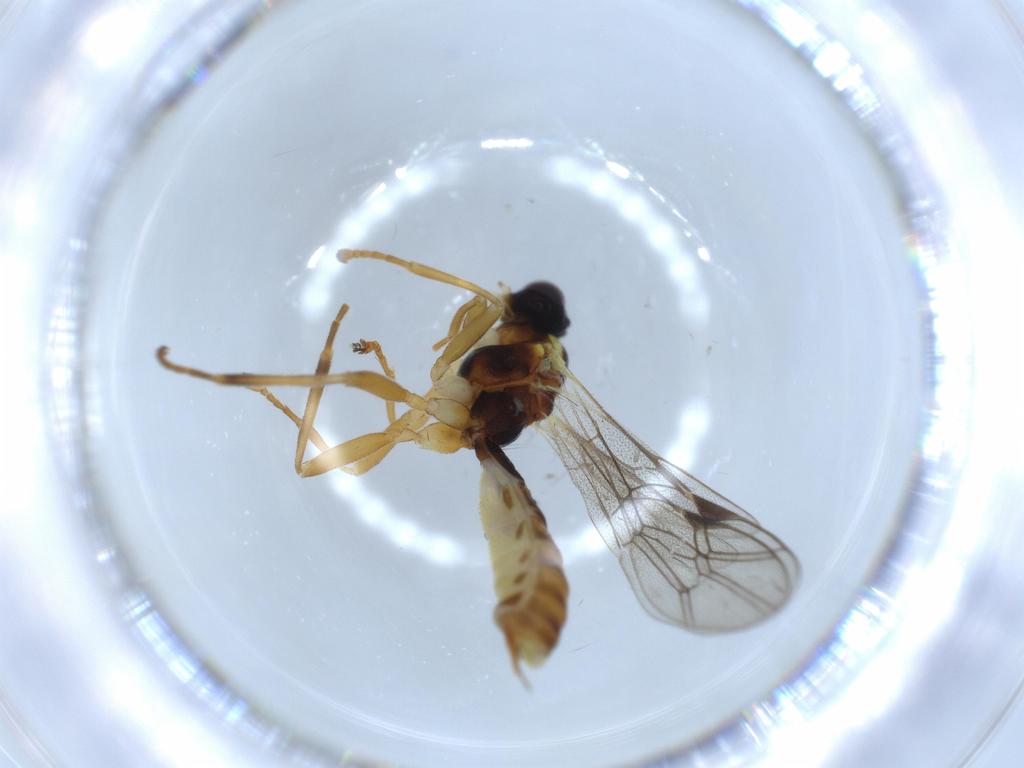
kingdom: Animalia
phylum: Arthropoda
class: Insecta
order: Hymenoptera
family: Ichneumonidae
